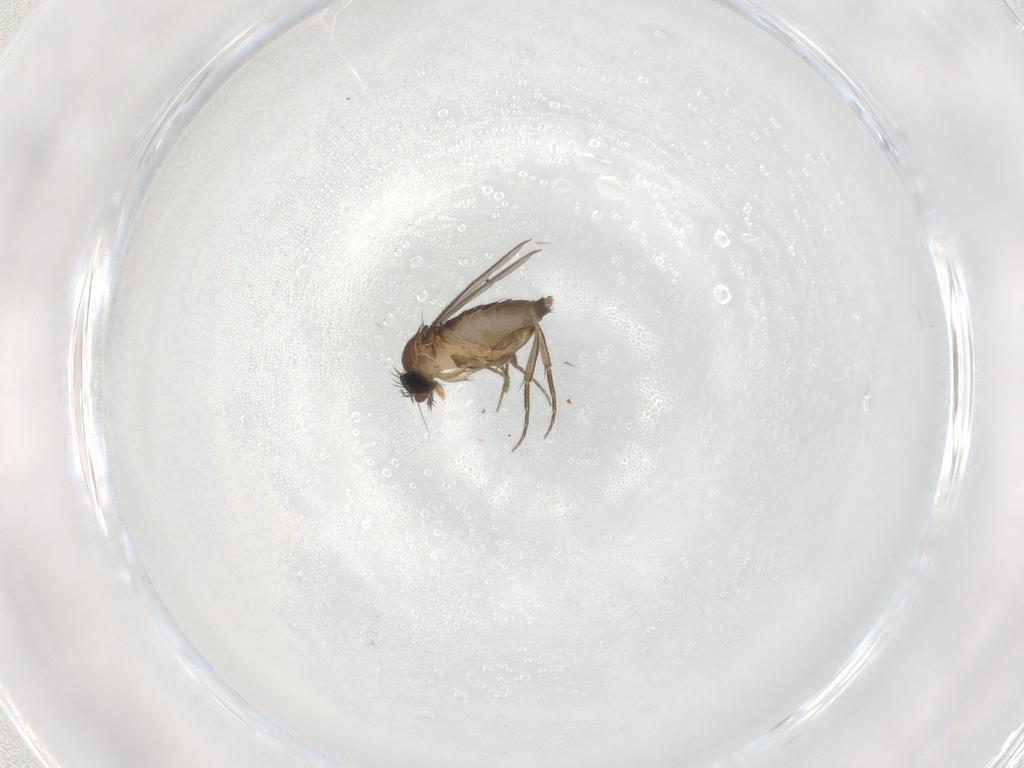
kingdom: Animalia
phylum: Arthropoda
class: Insecta
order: Diptera
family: Phoridae
